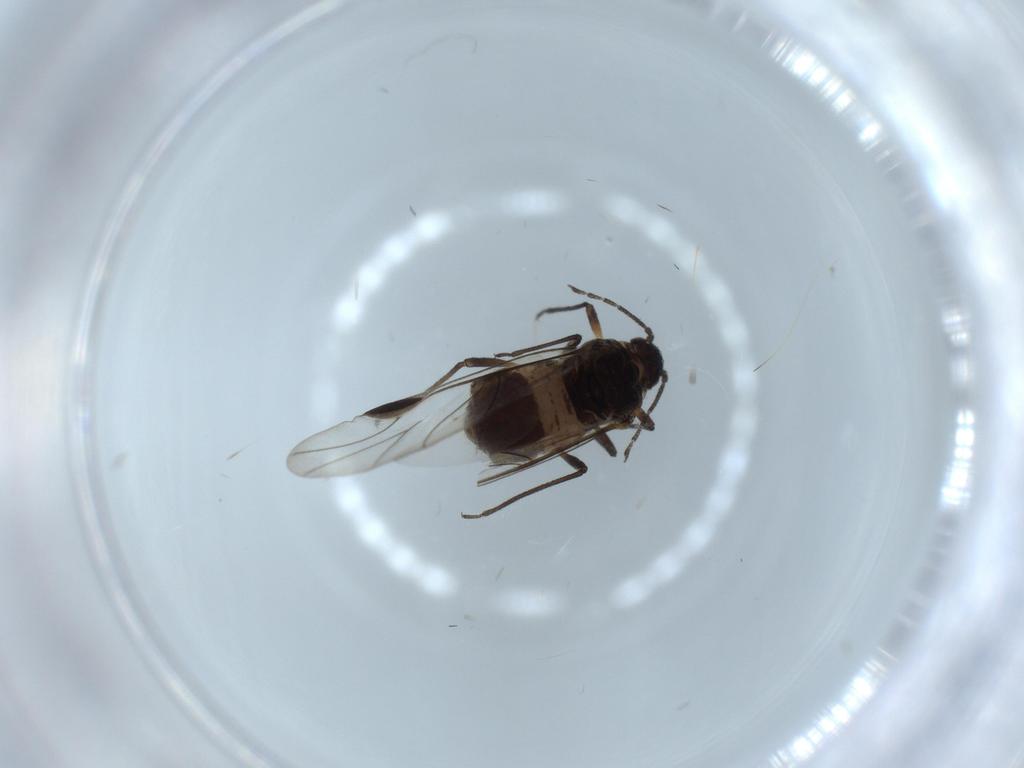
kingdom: Animalia
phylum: Arthropoda
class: Insecta
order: Hemiptera
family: Aphididae
